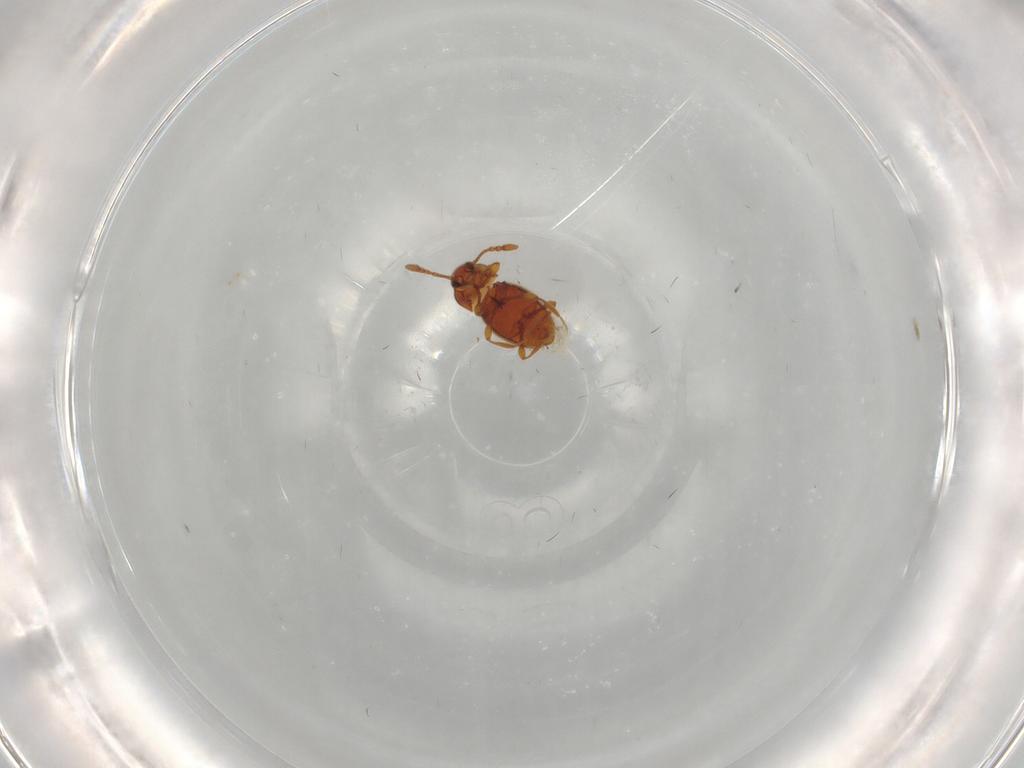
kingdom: Animalia
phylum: Arthropoda
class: Insecta
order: Coleoptera
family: Staphylinidae
